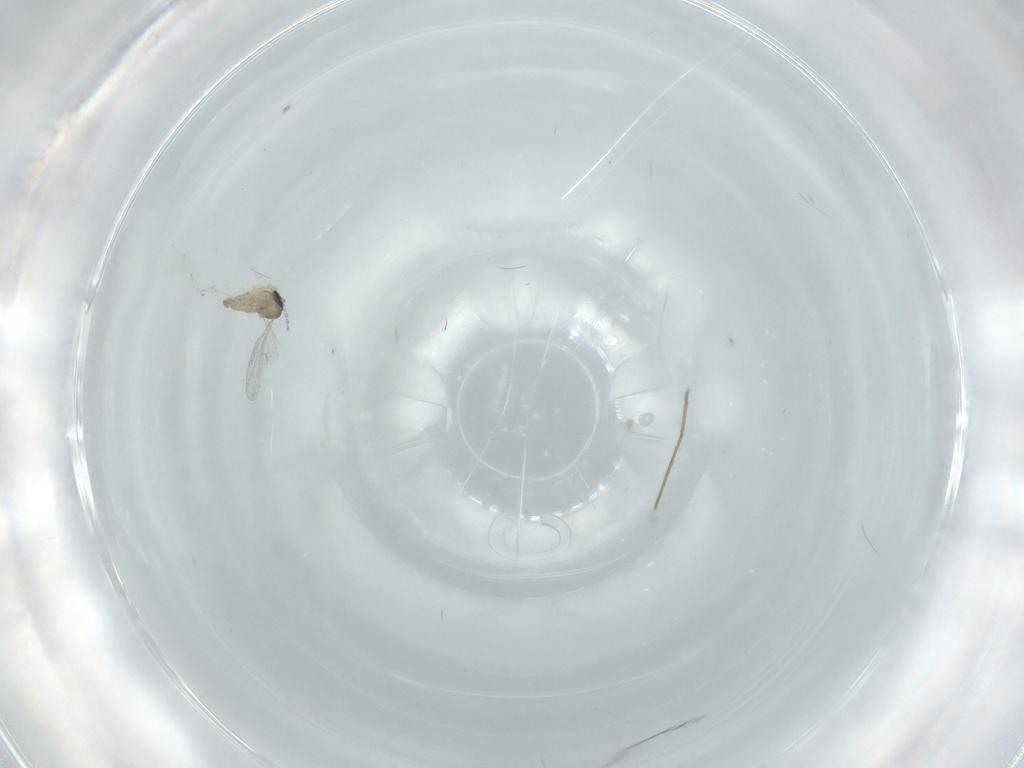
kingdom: Animalia
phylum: Arthropoda
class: Insecta
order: Diptera
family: Cecidomyiidae
